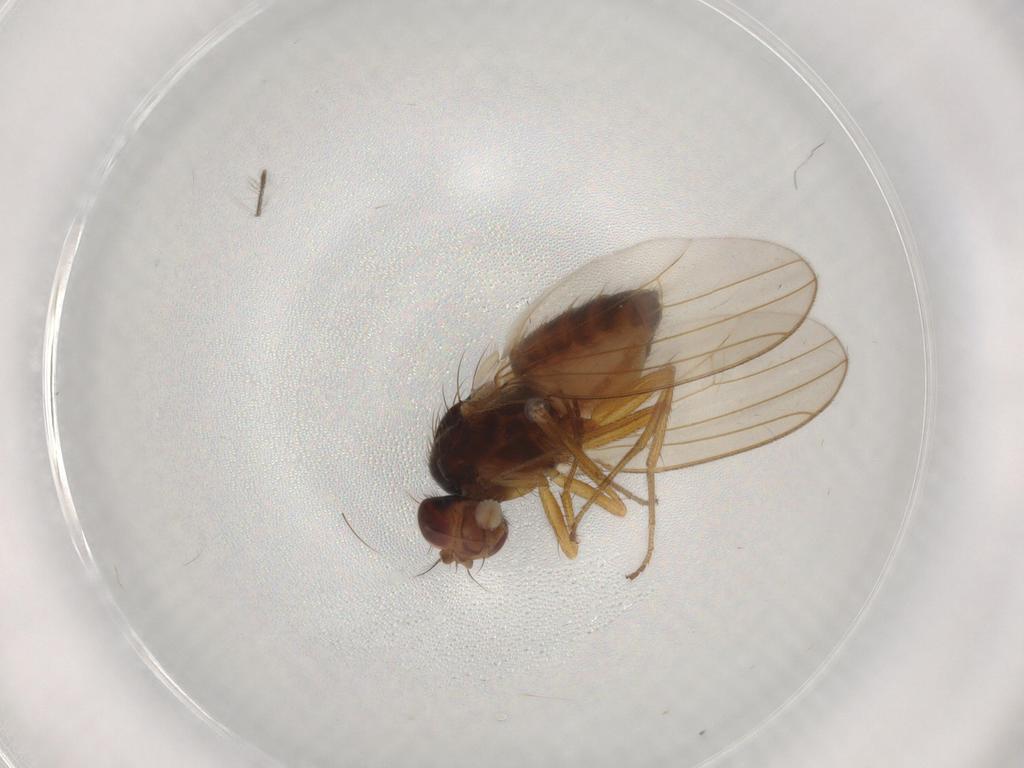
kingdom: Animalia
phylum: Arthropoda
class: Insecta
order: Diptera
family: Drosophilidae
